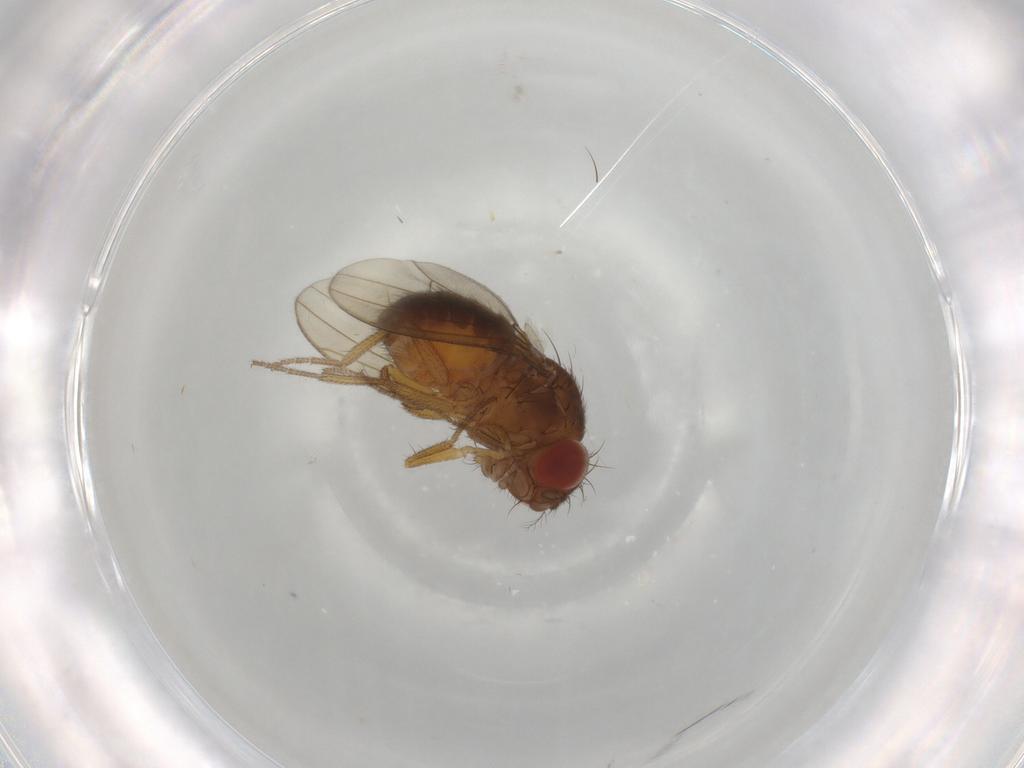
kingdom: Animalia
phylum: Arthropoda
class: Insecta
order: Diptera
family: Drosophilidae
